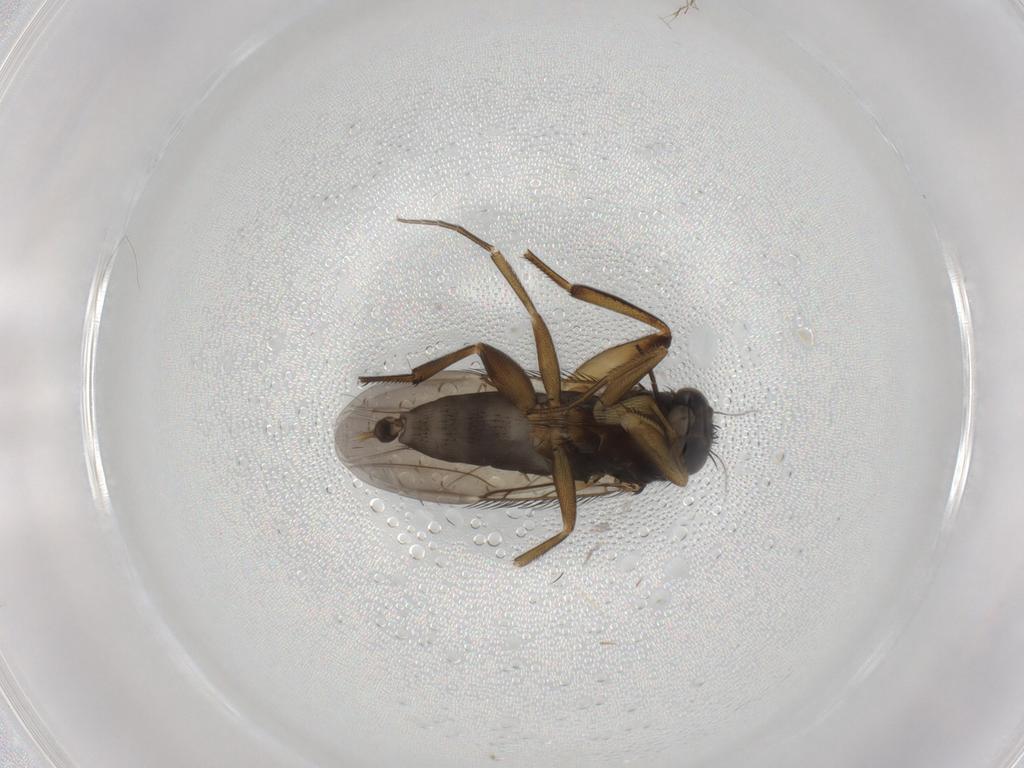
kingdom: Animalia
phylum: Arthropoda
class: Insecta
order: Diptera
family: Phoridae
